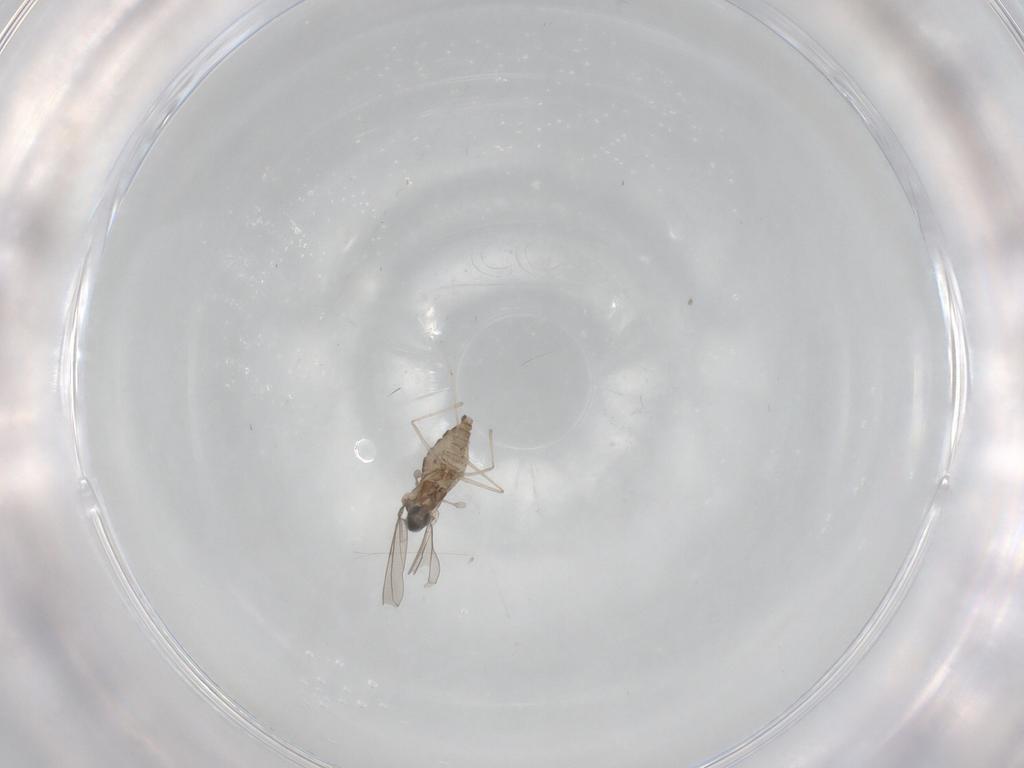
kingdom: Animalia
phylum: Arthropoda
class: Insecta
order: Diptera
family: Cecidomyiidae
